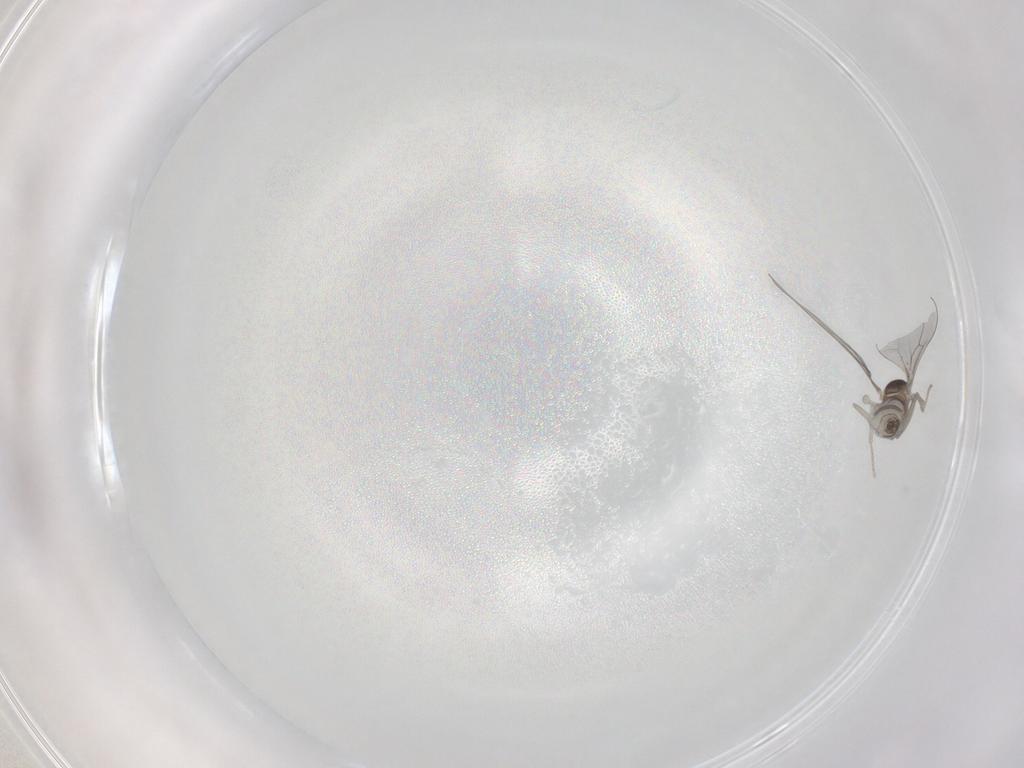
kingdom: Animalia
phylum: Arthropoda
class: Insecta
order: Diptera
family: Cecidomyiidae
